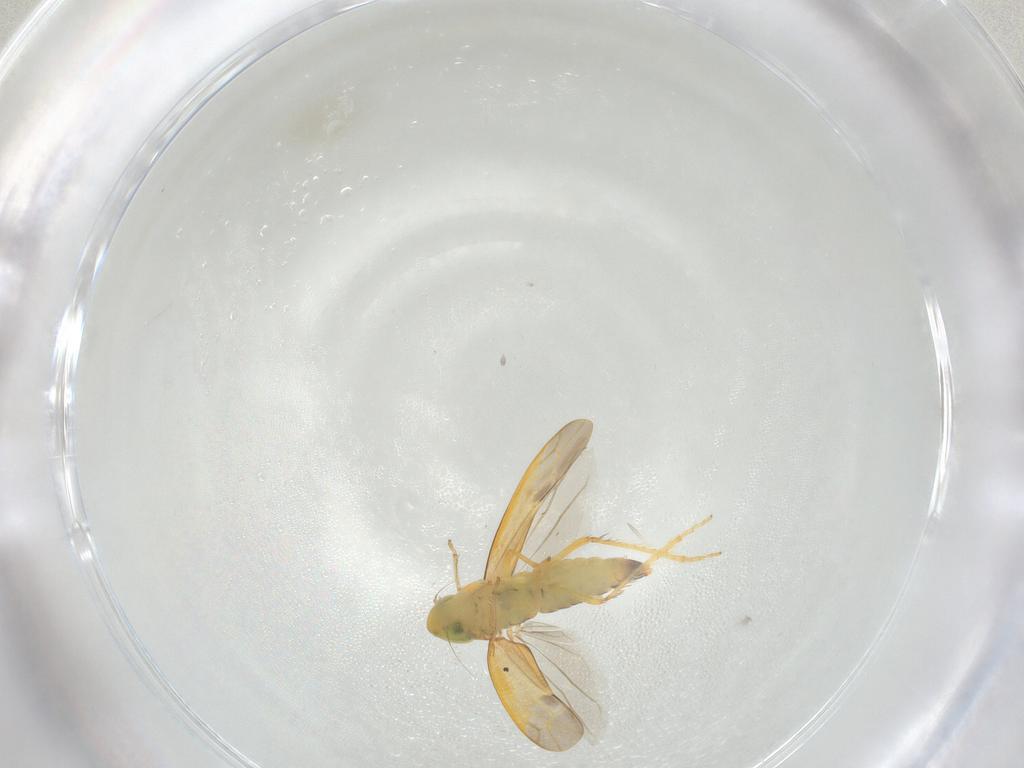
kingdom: Animalia
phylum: Arthropoda
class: Insecta
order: Hemiptera
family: Cicadellidae
